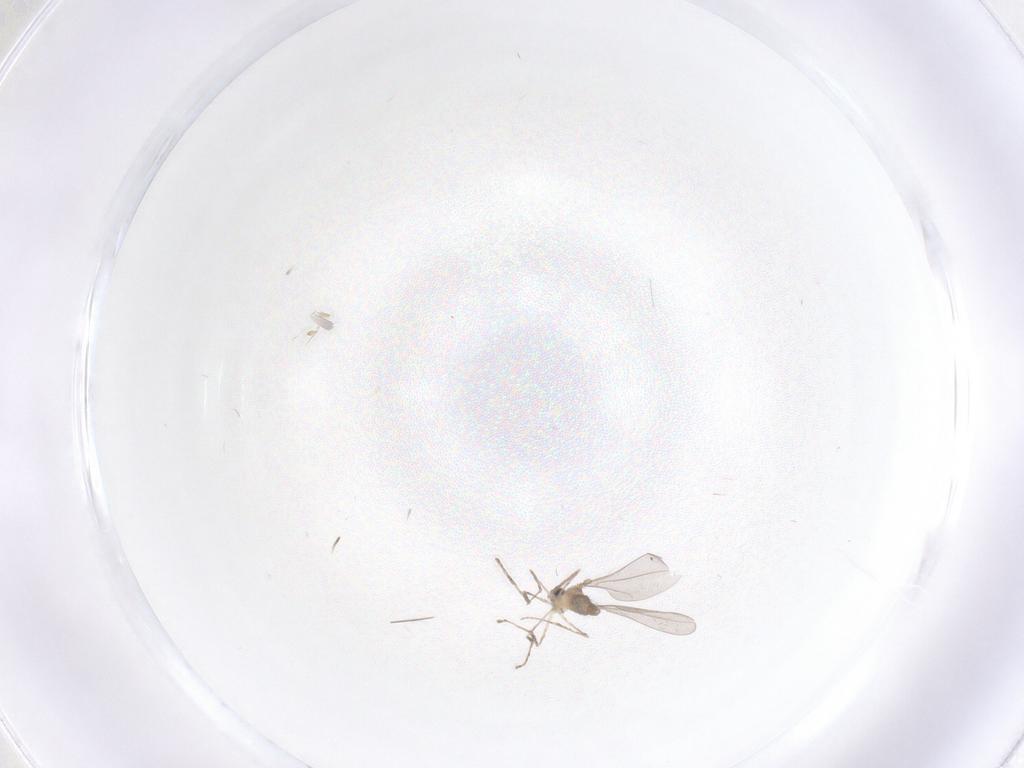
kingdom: Animalia
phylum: Arthropoda
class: Insecta
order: Diptera
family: Cecidomyiidae
